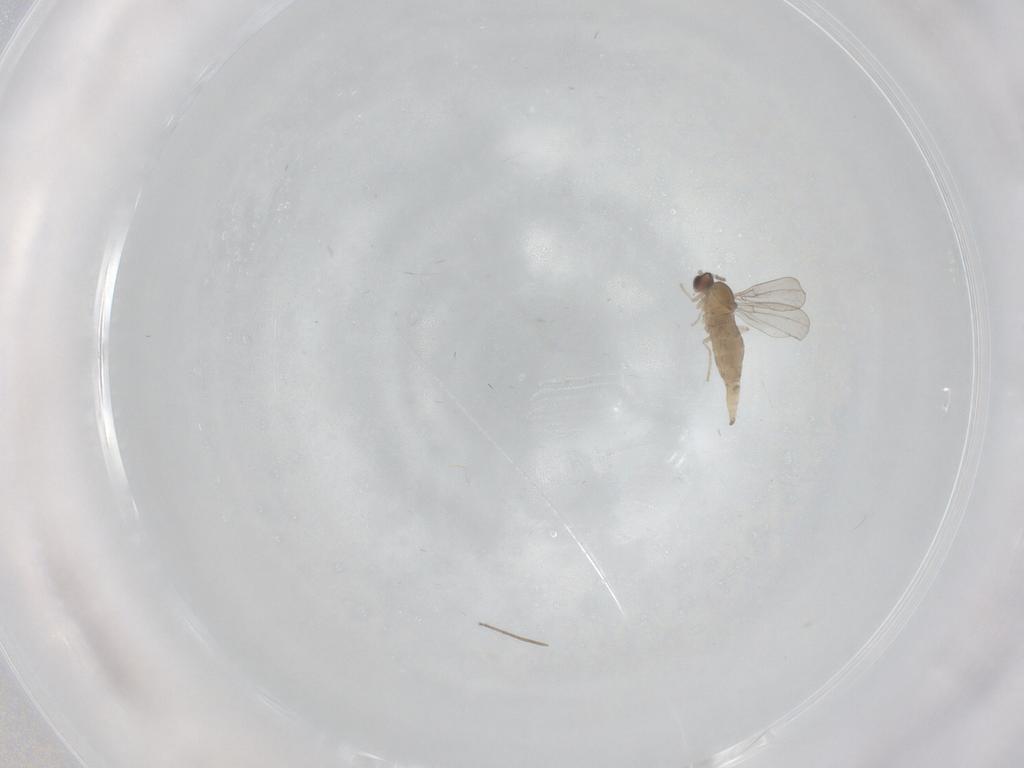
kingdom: Animalia
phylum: Arthropoda
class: Insecta
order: Diptera
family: Cecidomyiidae
